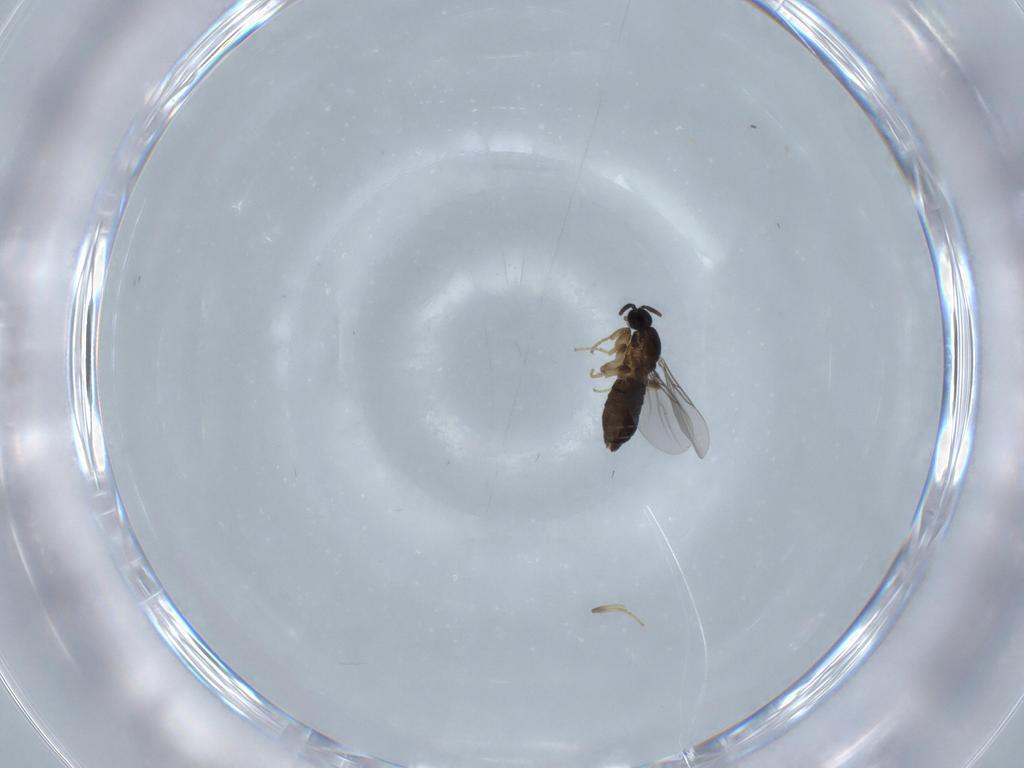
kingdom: Animalia
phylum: Arthropoda
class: Insecta
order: Diptera
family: Scatopsidae
